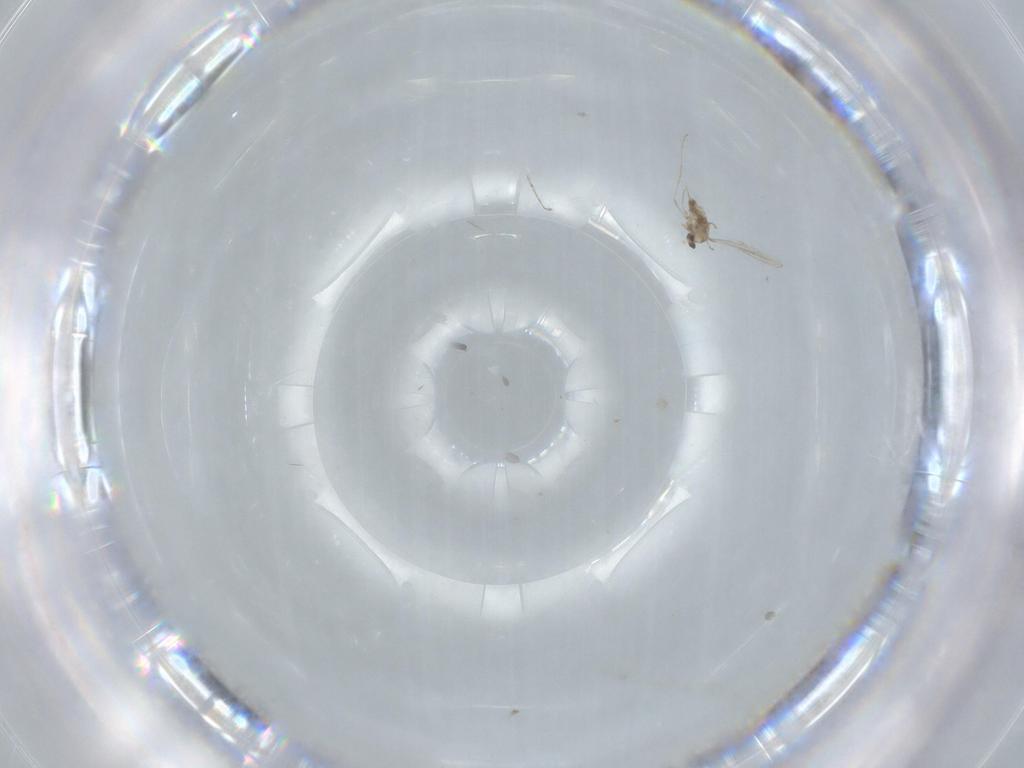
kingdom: Animalia
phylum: Arthropoda
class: Insecta
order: Diptera
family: Cecidomyiidae
